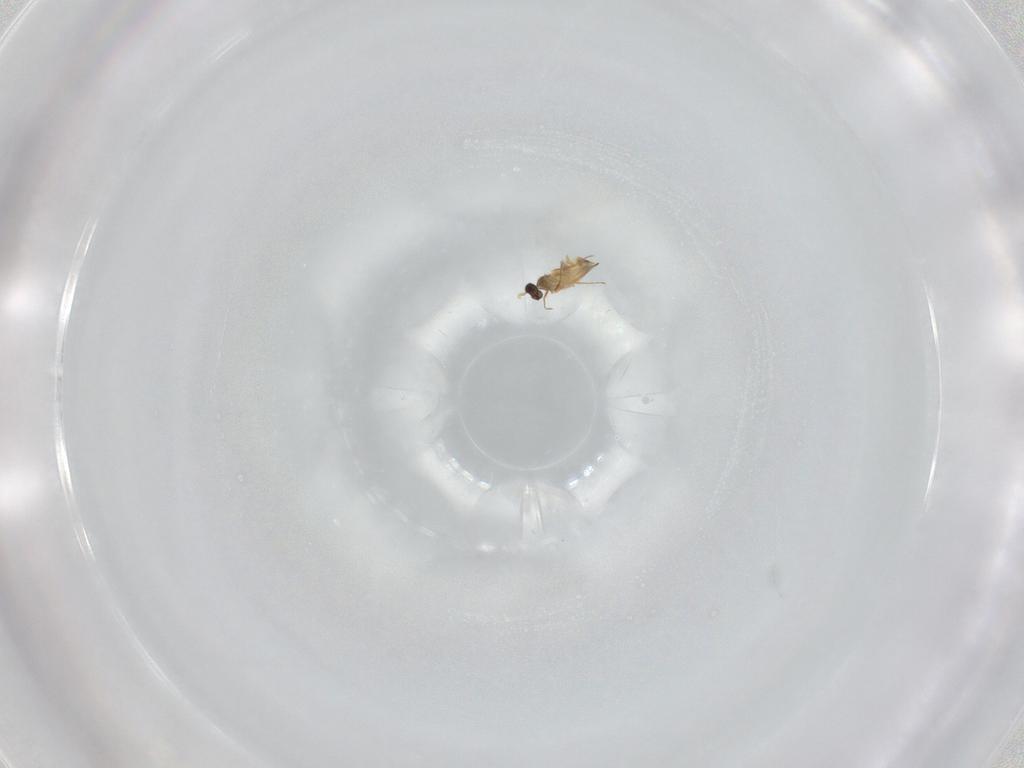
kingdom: Animalia
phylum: Arthropoda
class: Insecta
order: Hymenoptera
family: Mymaridae
